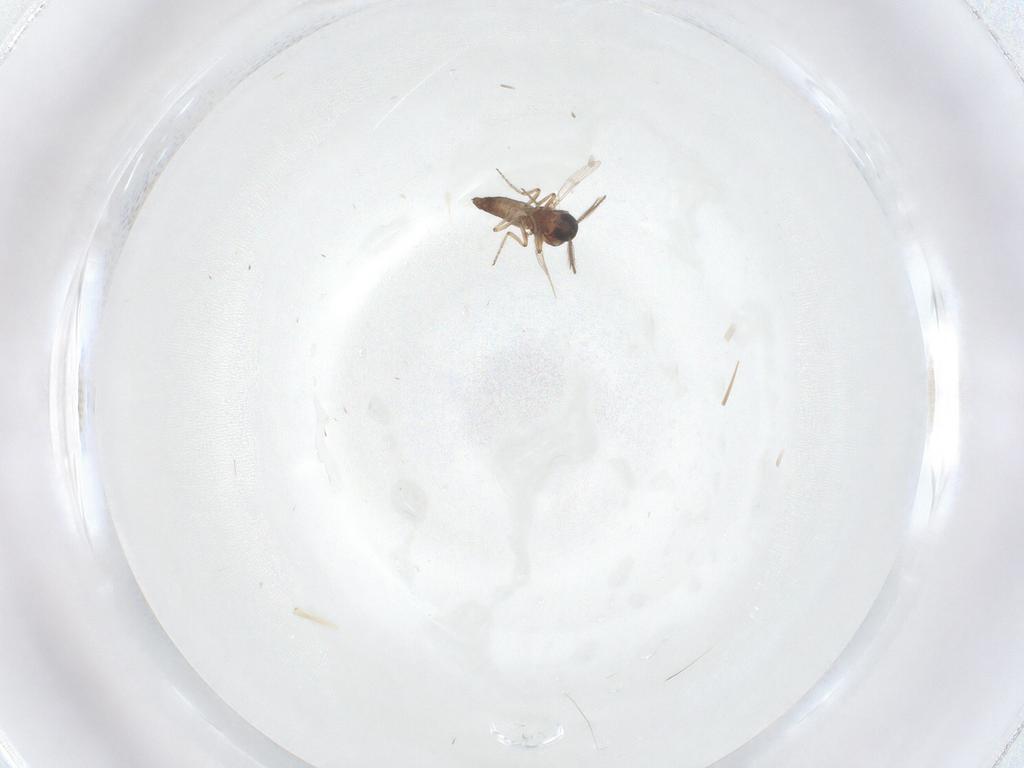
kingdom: Animalia
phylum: Arthropoda
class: Insecta
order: Diptera
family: Ceratopogonidae
